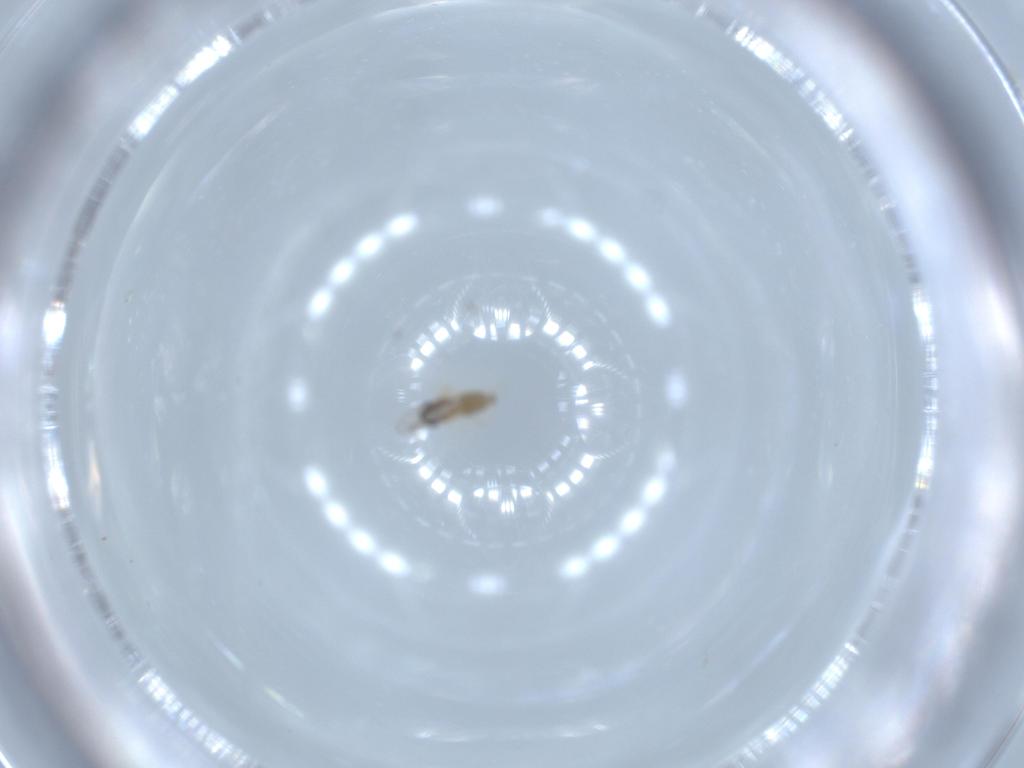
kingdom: Animalia
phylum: Arthropoda
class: Insecta
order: Diptera
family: Cecidomyiidae
